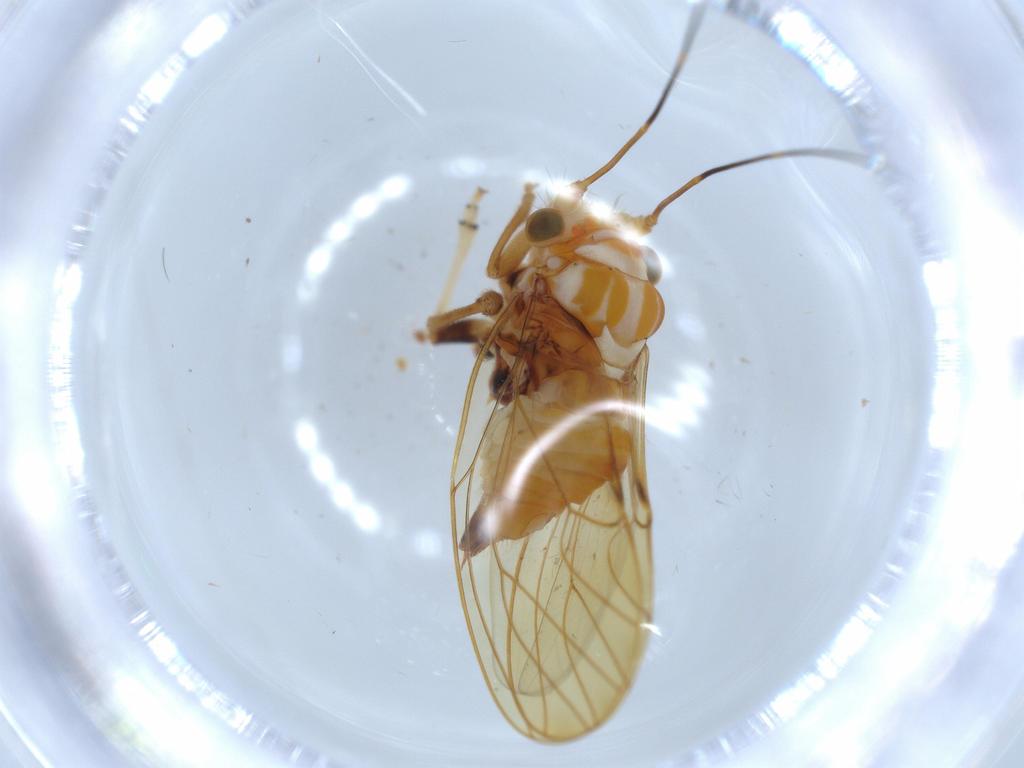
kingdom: Animalia
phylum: Arthropoda
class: Insecta
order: Hemiptera
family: Psyllidae
